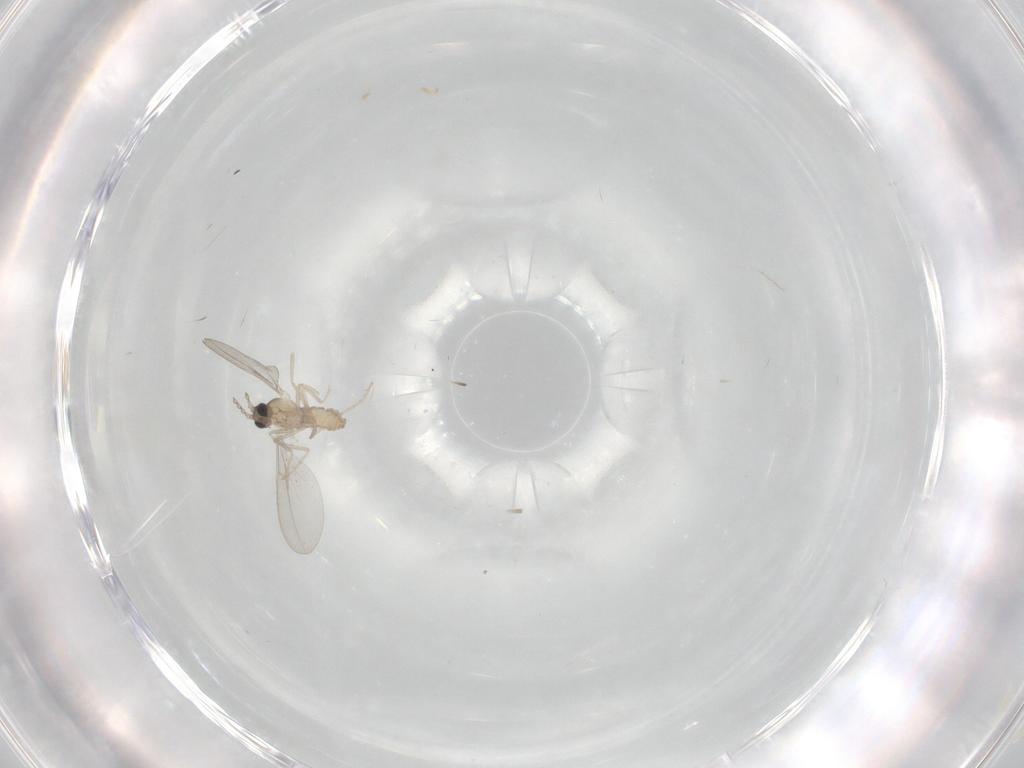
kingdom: Animalia
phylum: Arthropoda
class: Insecta
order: Diptera
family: Cecidomyiidae
